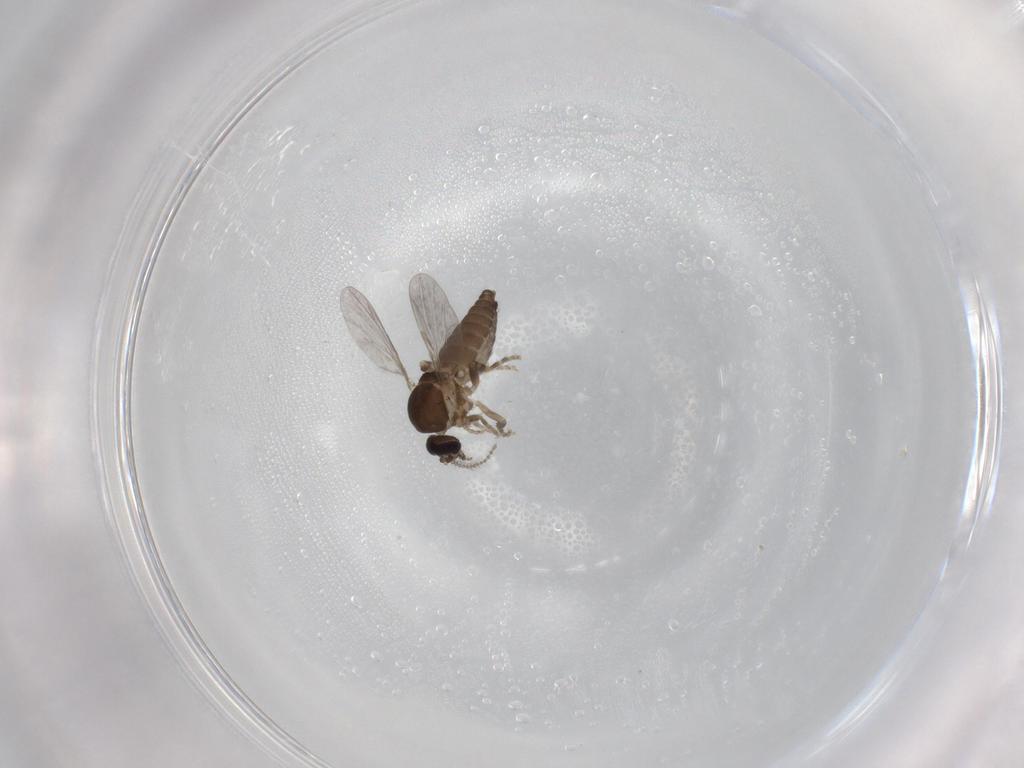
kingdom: Animalia
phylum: Arthropoda
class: Insecta
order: Diptera
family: Ceratopogonidae
